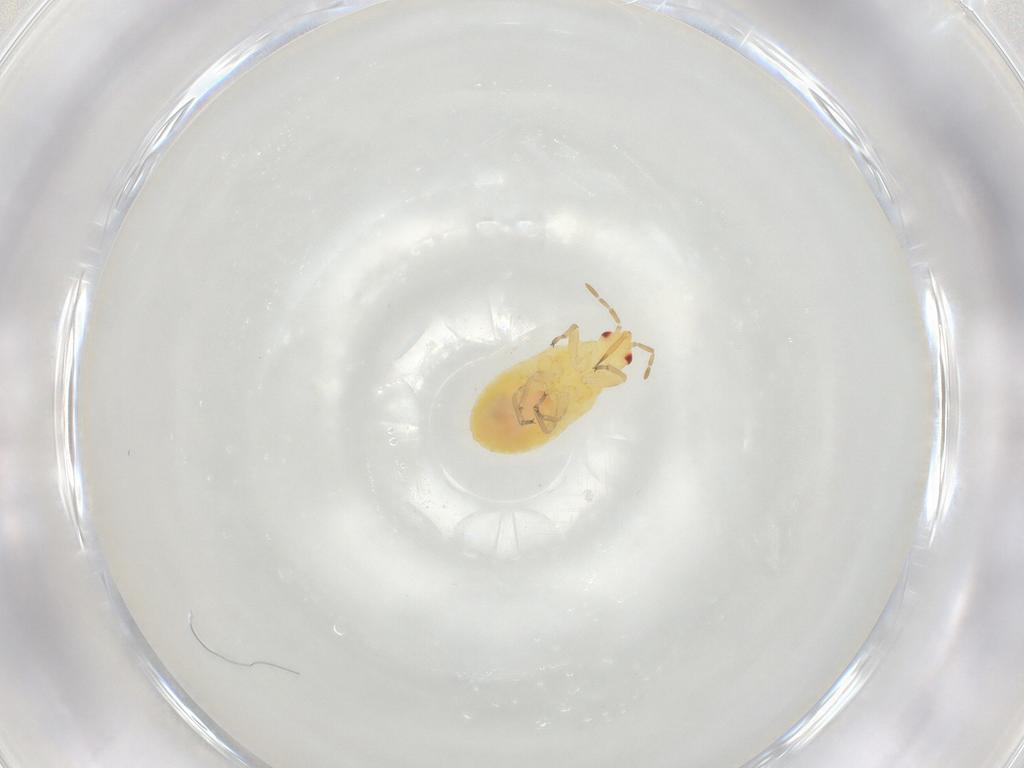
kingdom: Animalia
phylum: Arthropoda
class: Insecta
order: Hemiptera
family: Anthocoridae
